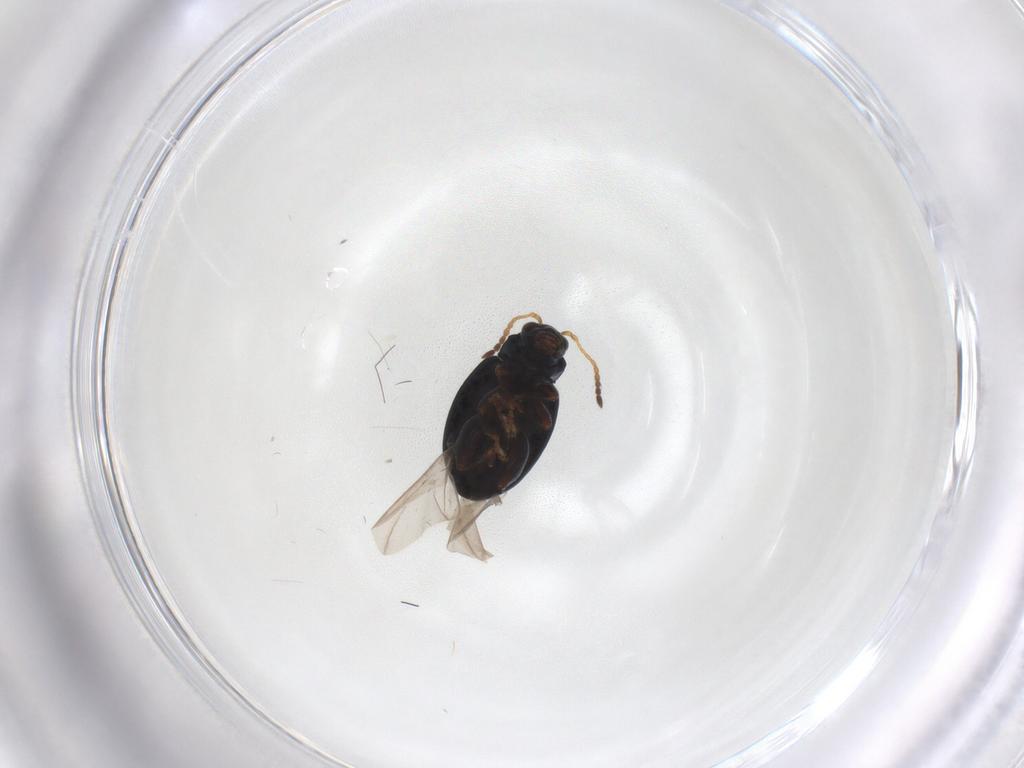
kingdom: Animalia
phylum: Arthropoda
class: Insecta
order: Coleoptera
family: Chrysomelidae
